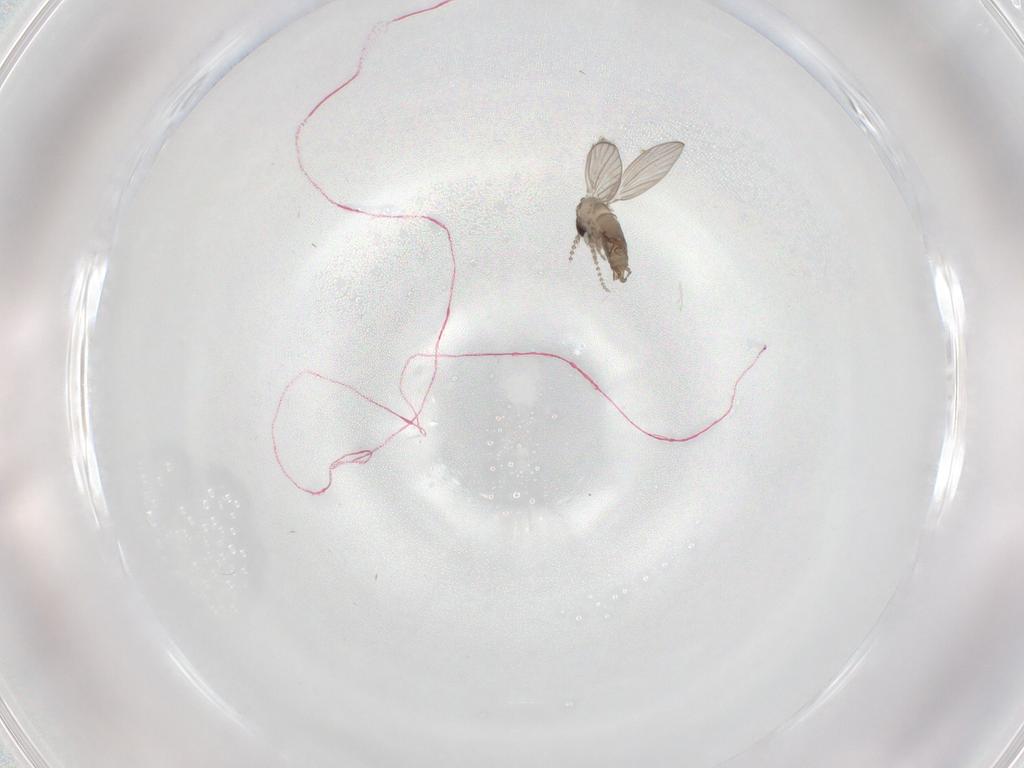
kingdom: Animalia
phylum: Arthropoda
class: Insecta
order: Diptera
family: Psychodidae
